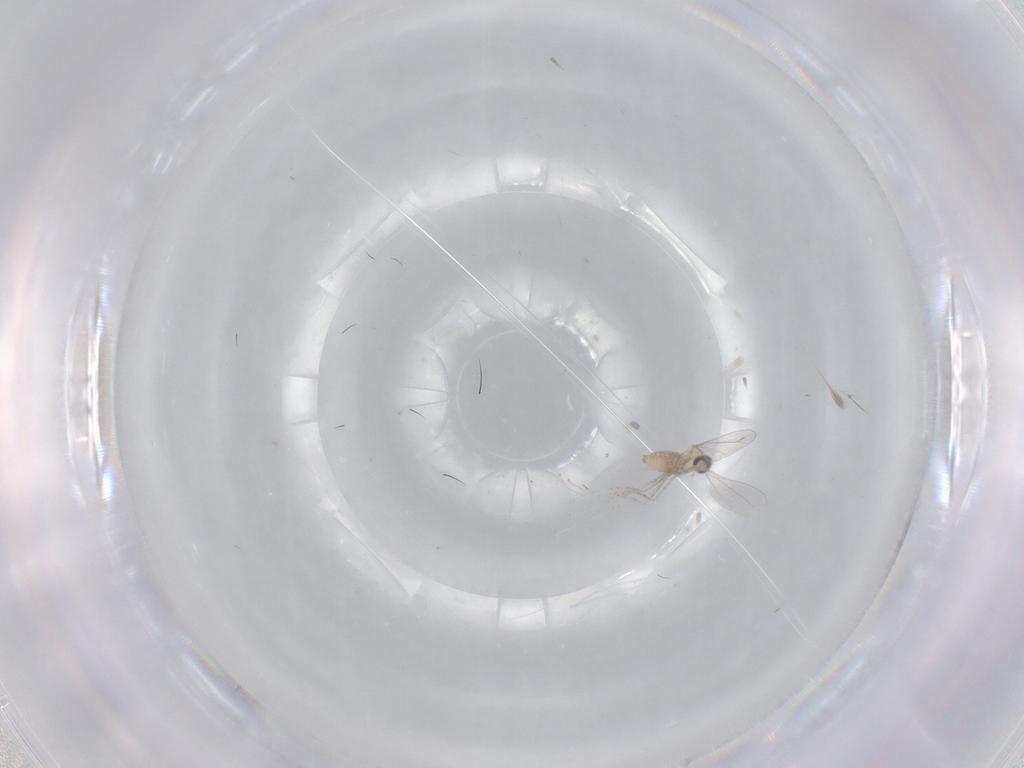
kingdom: Animalia
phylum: Arthropoda
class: Insecta
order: Diptera
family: Cecidomyiidae
